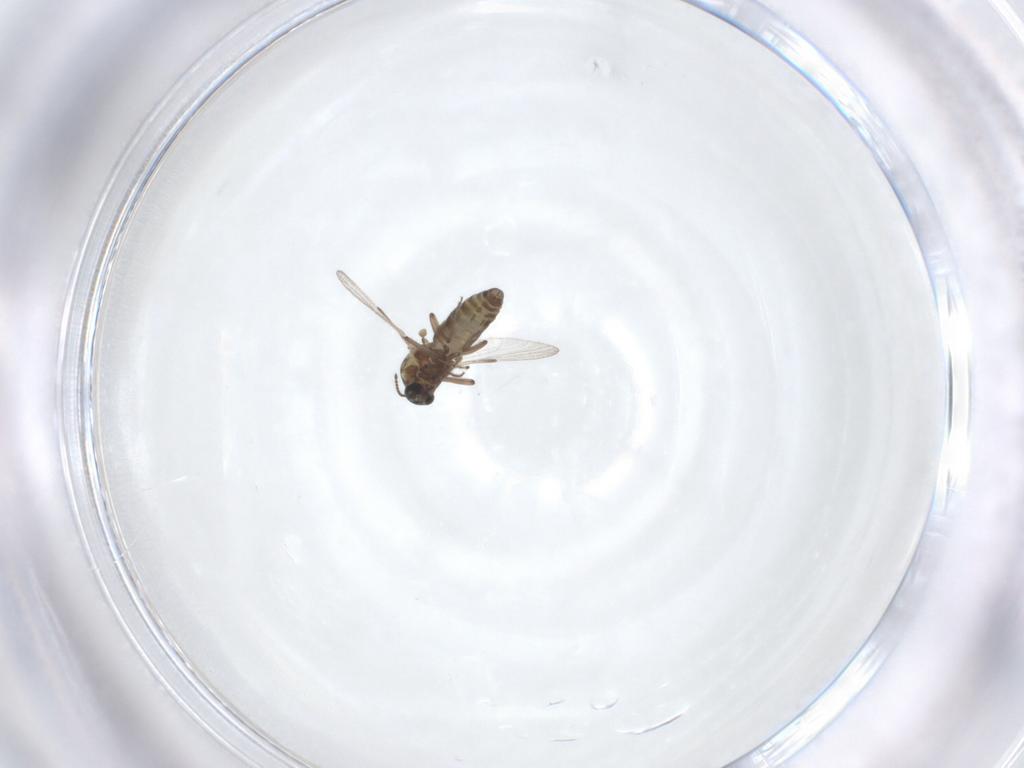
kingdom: Animalia
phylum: Arthropoda
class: Insecta
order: Diptera
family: Ceratopogonidae
